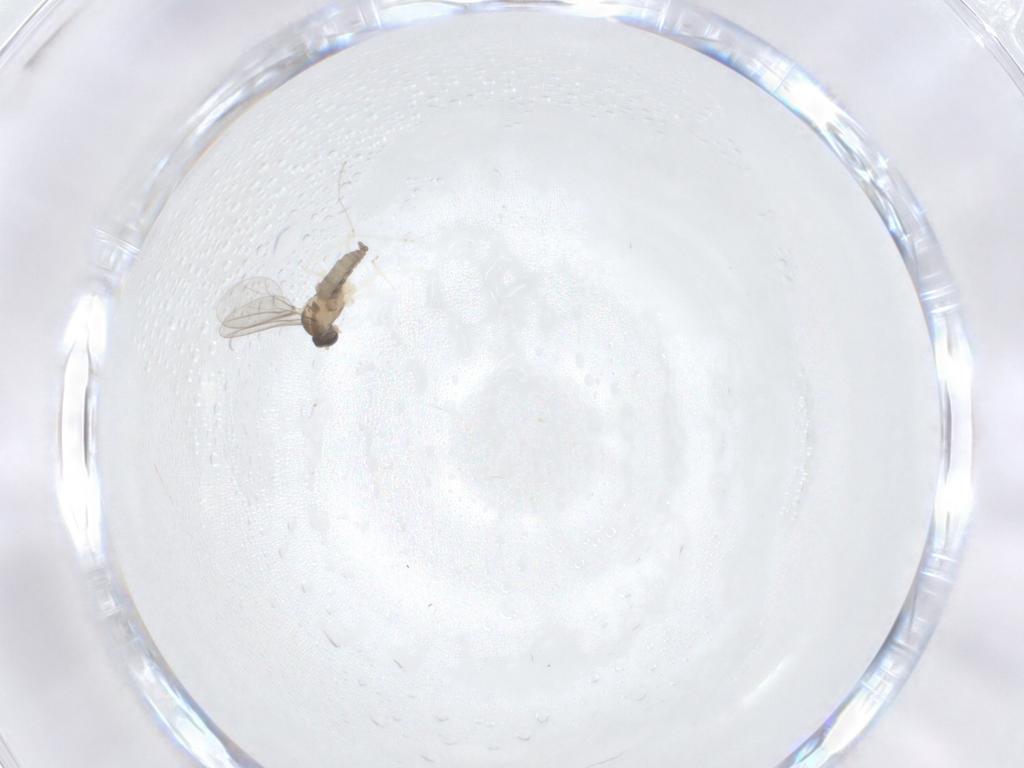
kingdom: Animalia
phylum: Arthropoda
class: Insecta
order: Diptera
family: Cecidomyiidae
